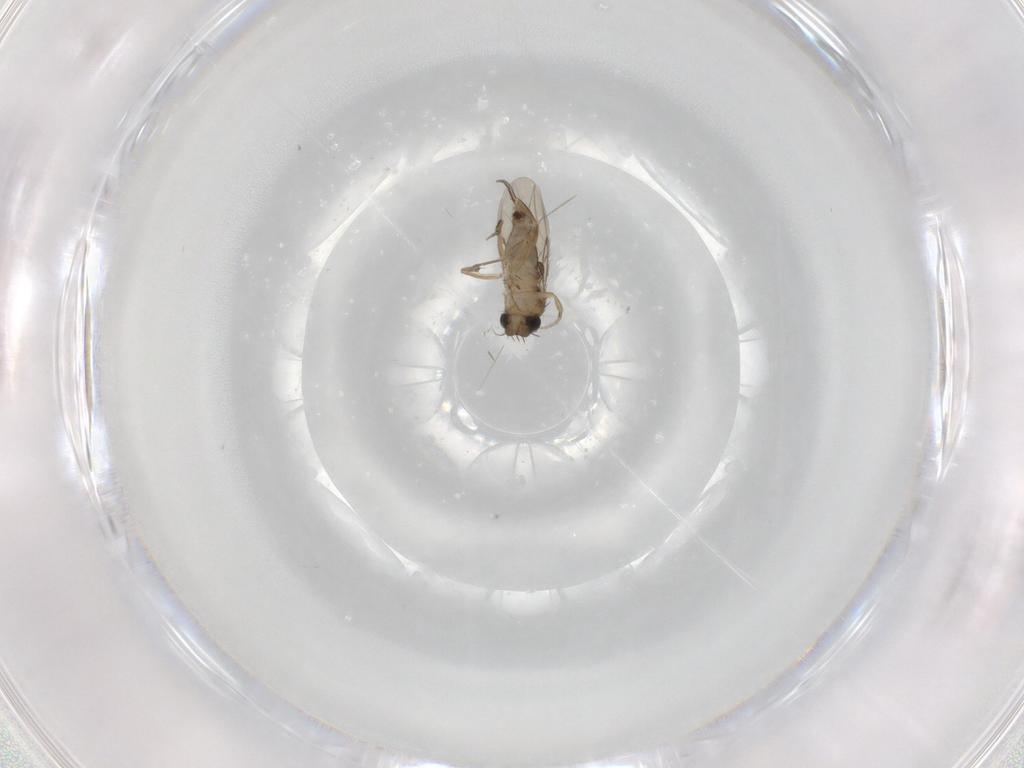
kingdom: Animalia
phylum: Arthropoda
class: Insecta
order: Diptera
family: Phoridae
